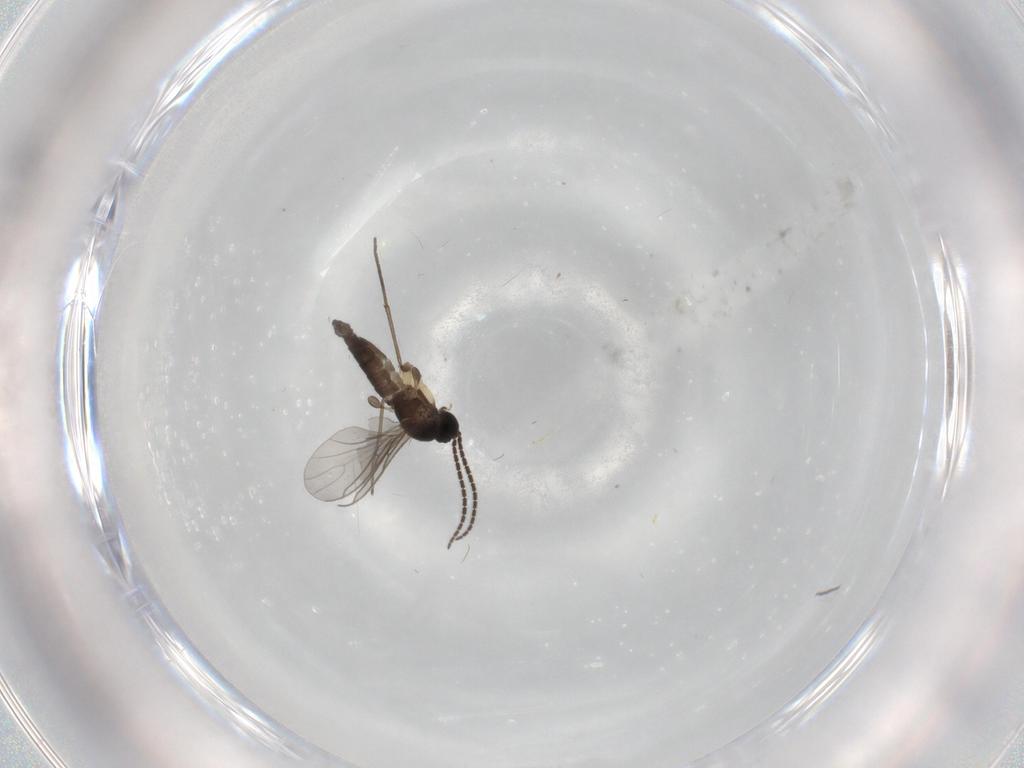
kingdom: Animalia
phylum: Arthropoda
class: Insecta
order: Diptera
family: Sciaridae
